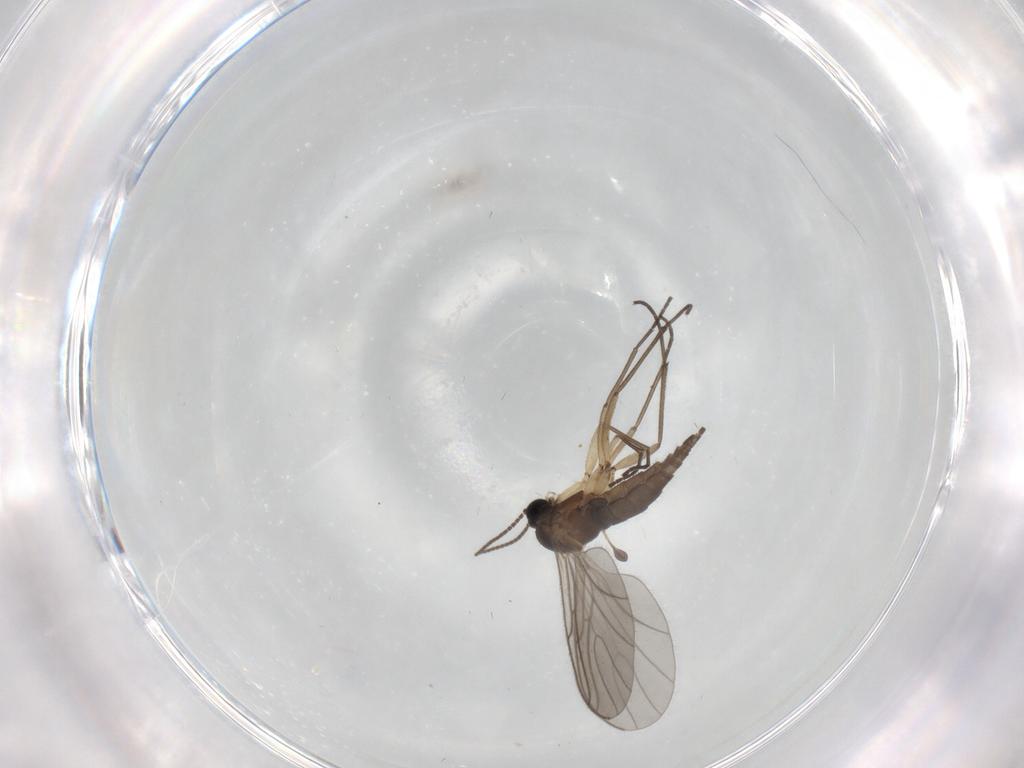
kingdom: Animalia
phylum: Arthropoda
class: Insecta
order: Diptera
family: Sciaridae
